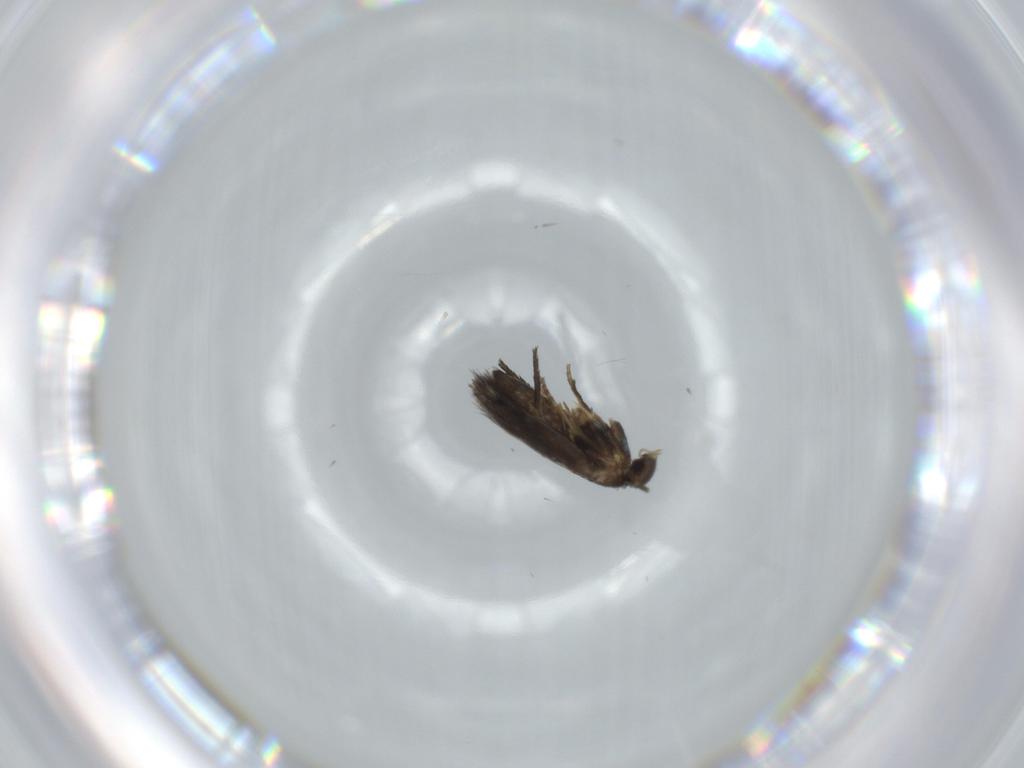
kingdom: Animalia
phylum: Arthropoda
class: Insecta
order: Lepidoptera
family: Heliozelidae
